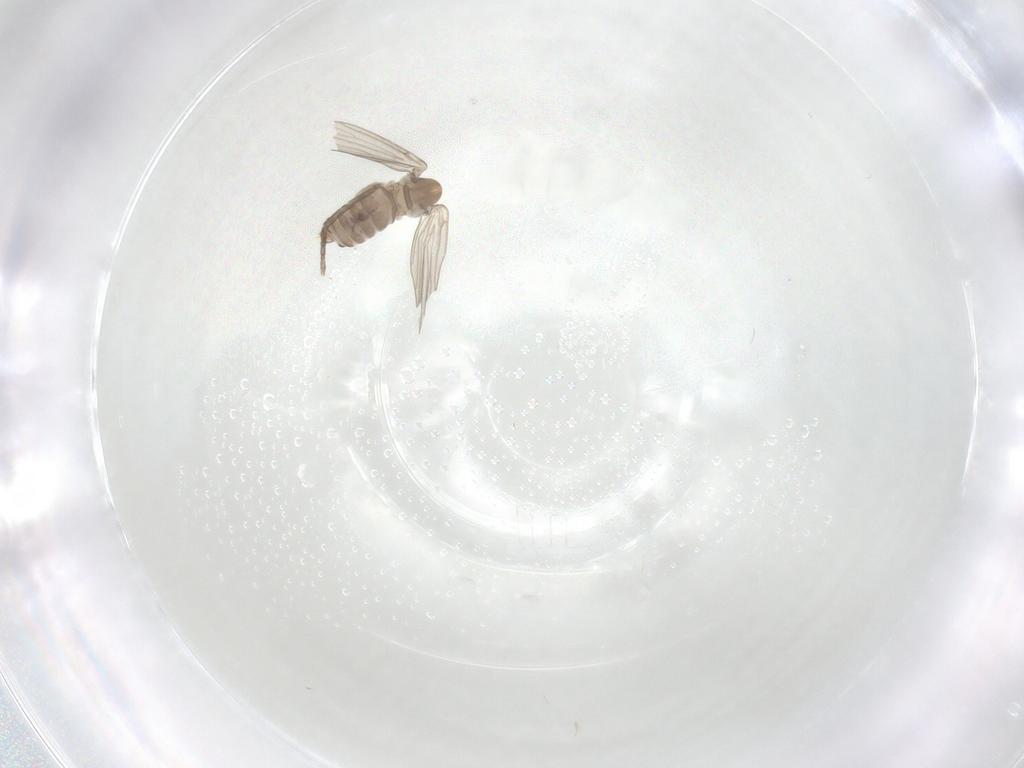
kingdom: Animalia
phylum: Arthropoda
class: Insecta
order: Diptera
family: Psychodidae
